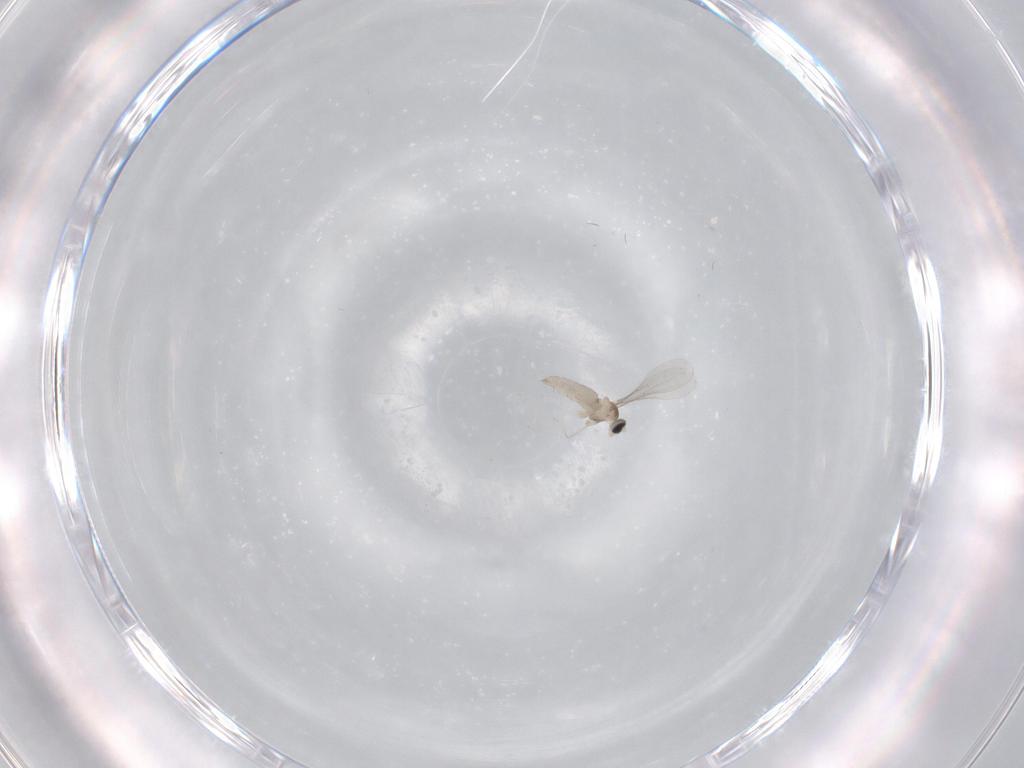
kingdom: Animalia
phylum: Arthropoda
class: Insecta
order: Diptera
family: Cecidomyiidae
